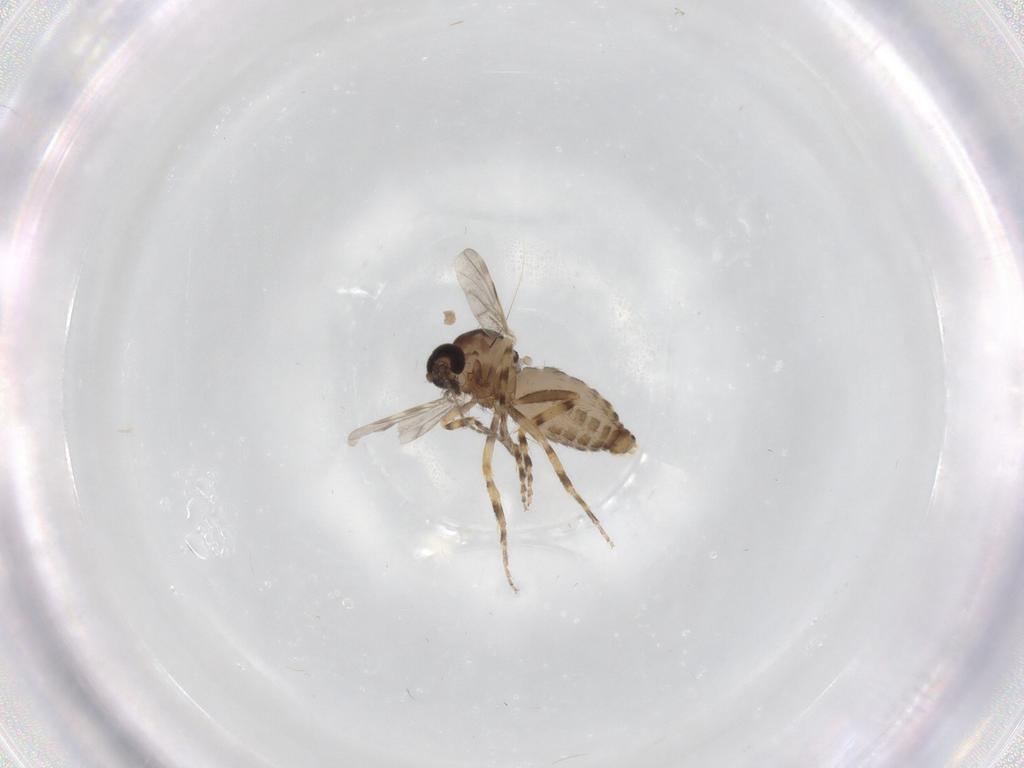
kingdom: Animalia
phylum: Arthropoda
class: Insecta
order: Diptera
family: Ceratopogonidae
